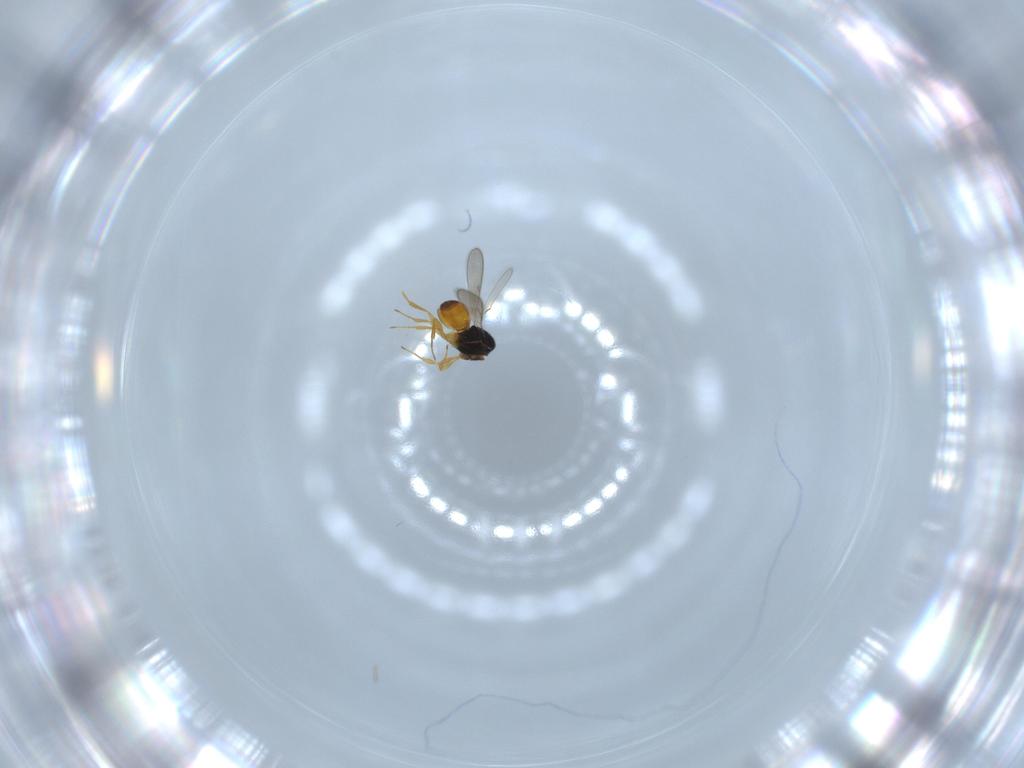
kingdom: Animalia
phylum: Arthropoda
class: Insecta
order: Hymenoptera
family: Scelionidae
